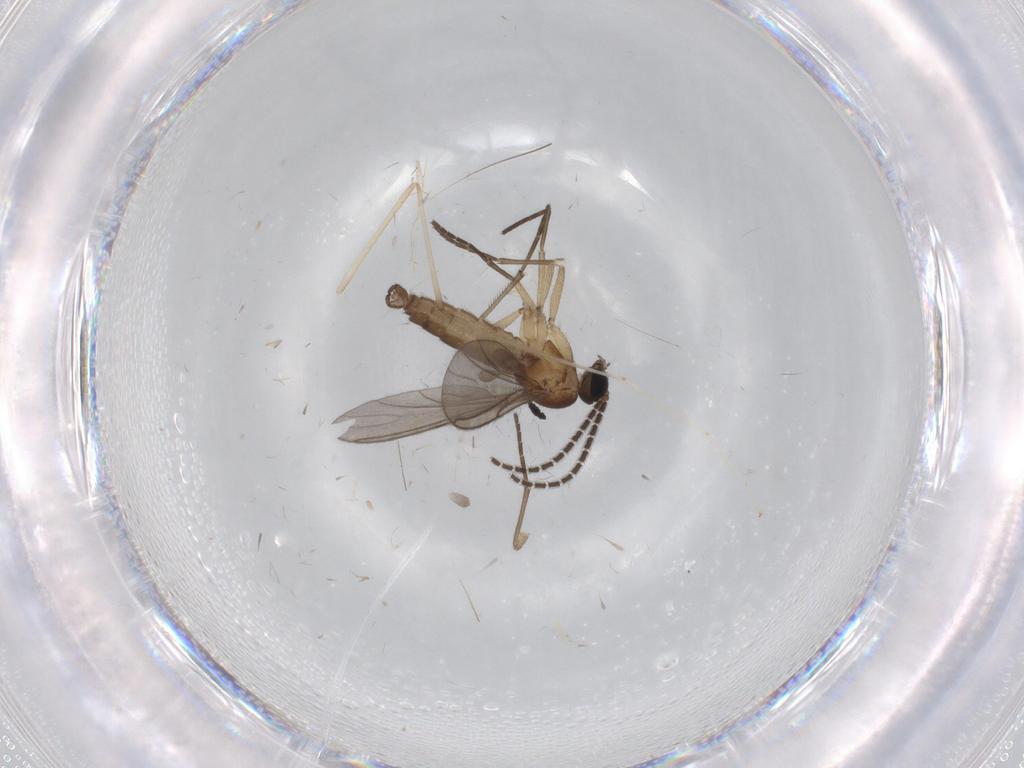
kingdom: Animalia
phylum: Arthropoda
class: Insecta
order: Diptera
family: Sciaridae
